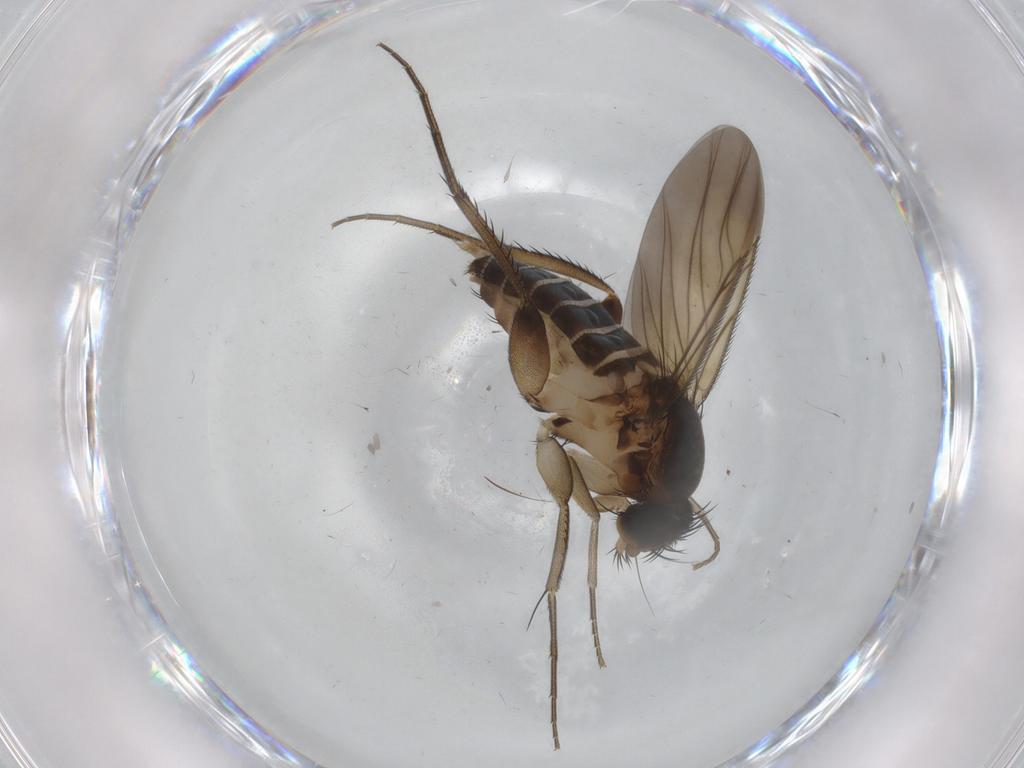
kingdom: Animalia
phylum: Arthropoda
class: Insecta
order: Diptera
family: Phoridae
